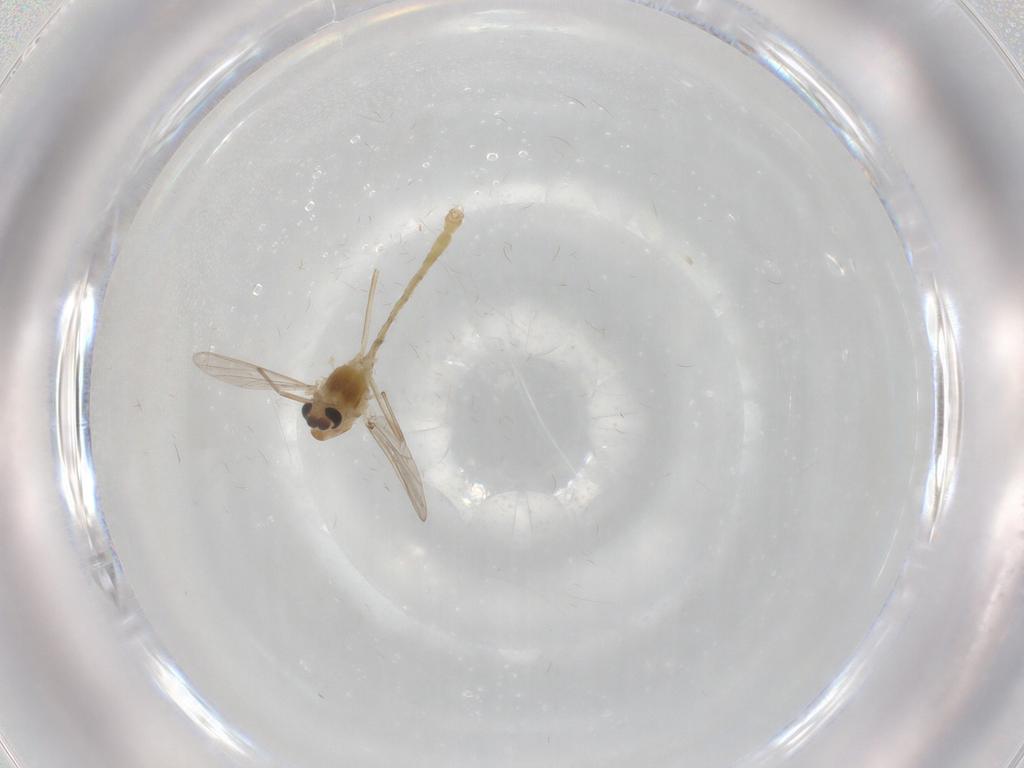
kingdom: Animalia
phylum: Arthropoda
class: Insecta
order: Diptera
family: Chironomidae
